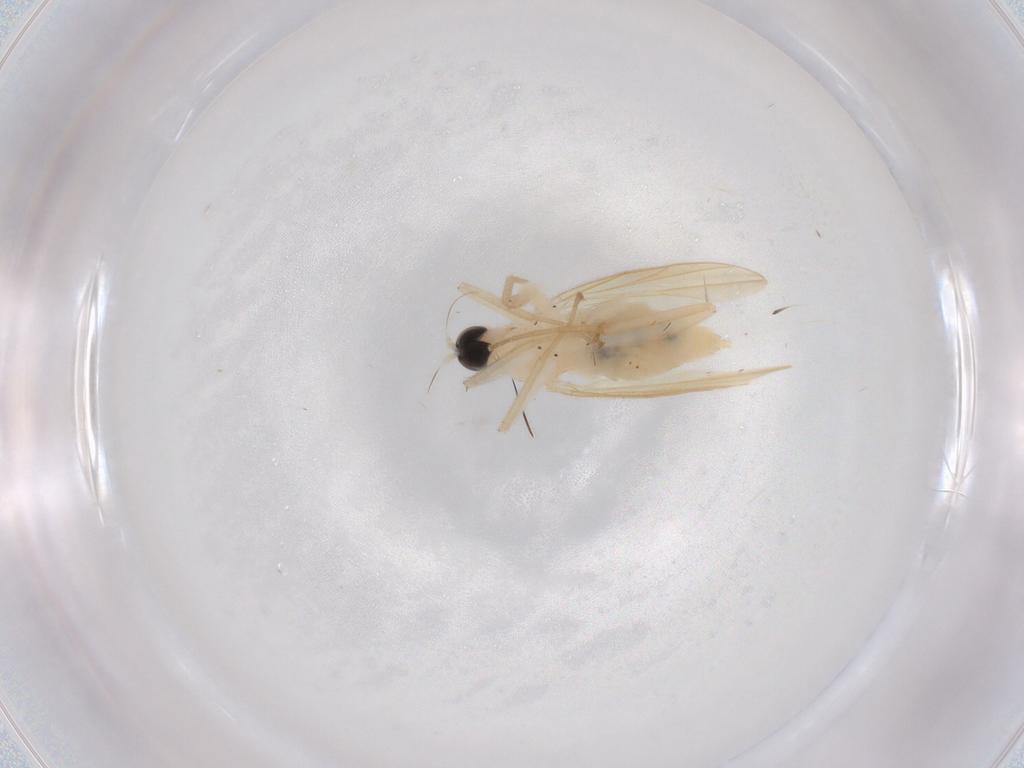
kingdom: Animalia
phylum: Arthropoda
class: Insecta
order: Diptera
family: Hybotidae
